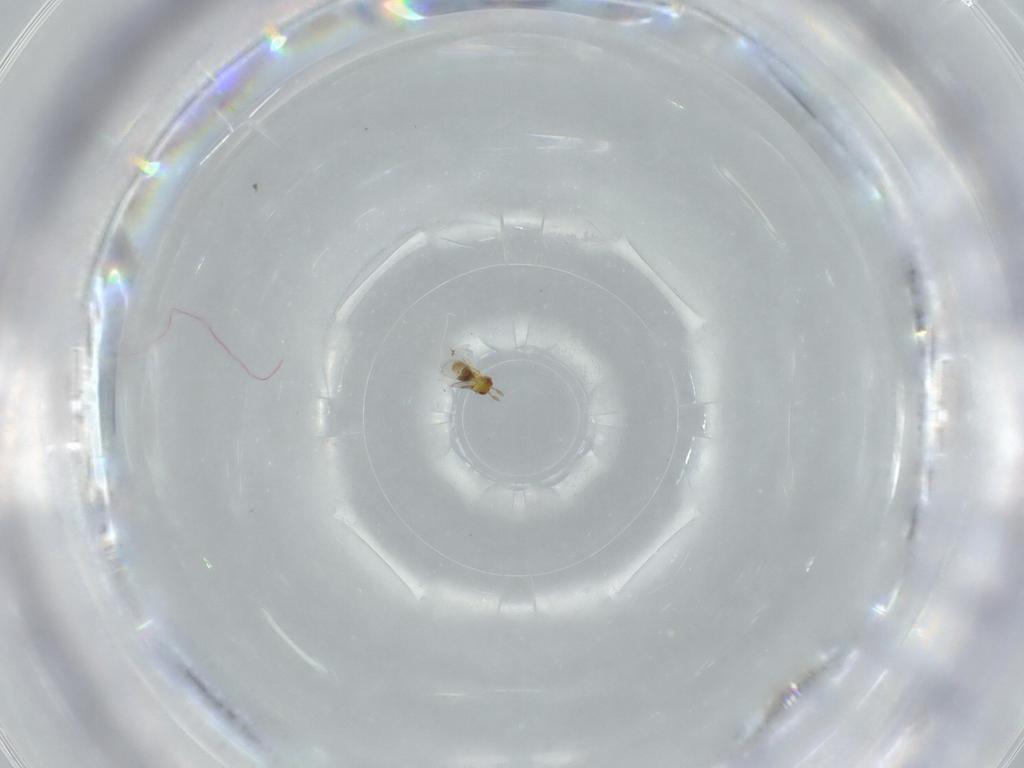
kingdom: Animalia
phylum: Arthropoda
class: Insecta
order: Hymenoptera
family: Trichogrammatidae
